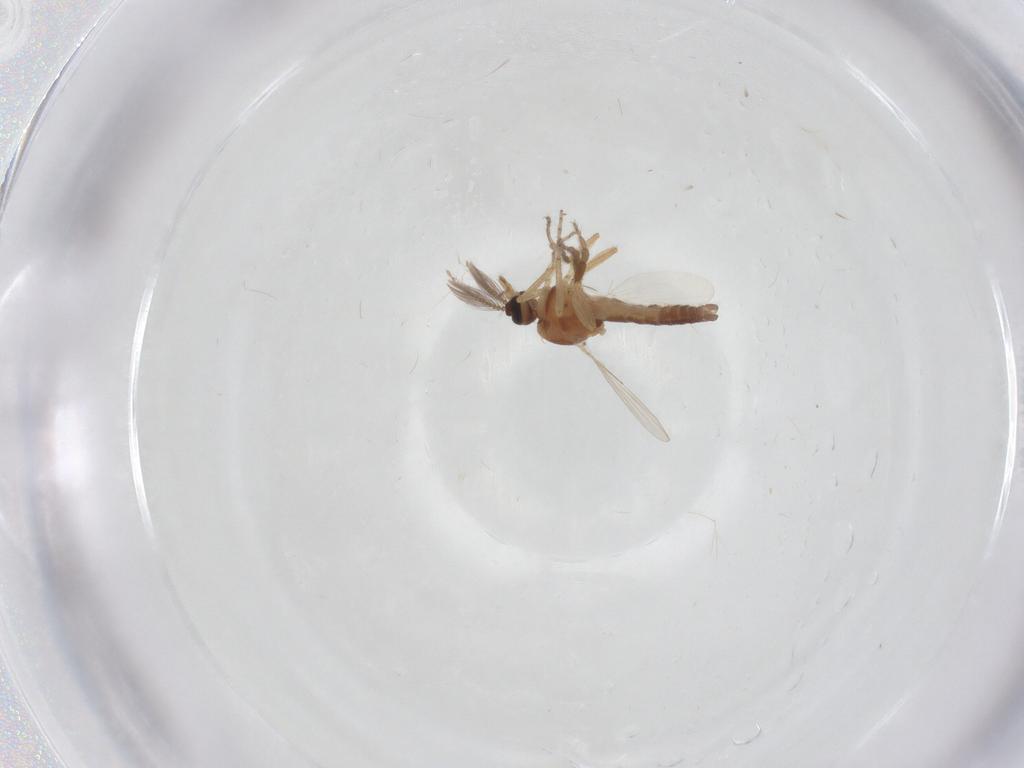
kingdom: Animalia
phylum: Arthropoda
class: Insecta
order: Diptera
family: Ceratopogonidae
